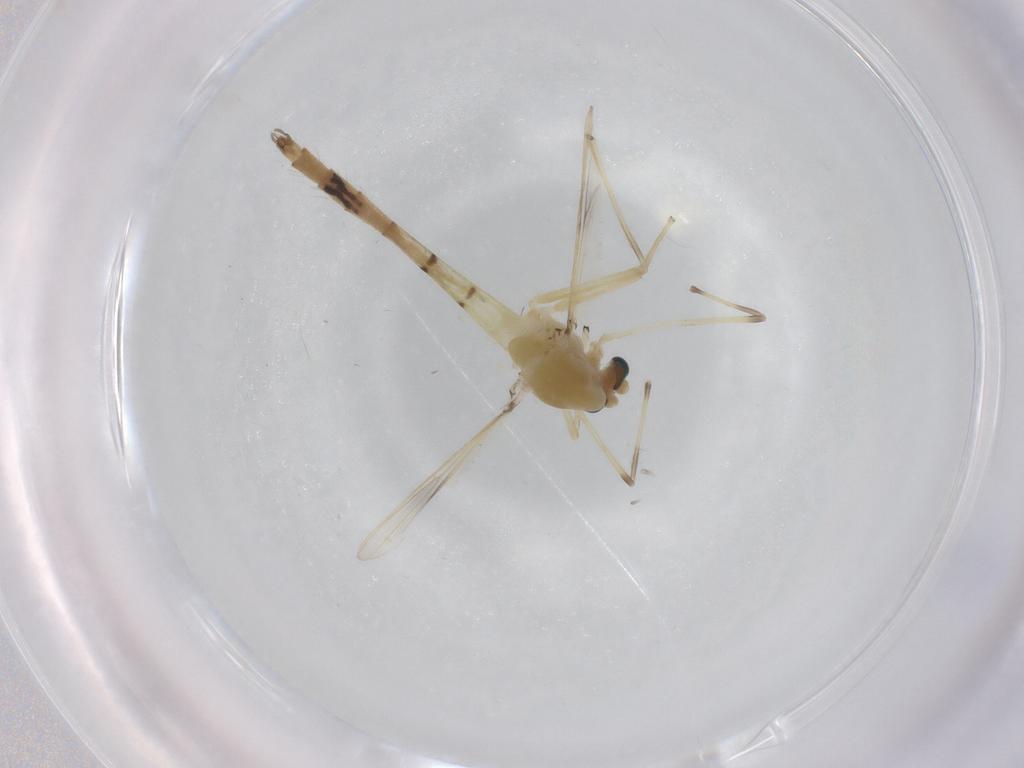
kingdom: Animalia
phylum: Arthropoda
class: Insecta
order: Diptera
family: Chironomidae
